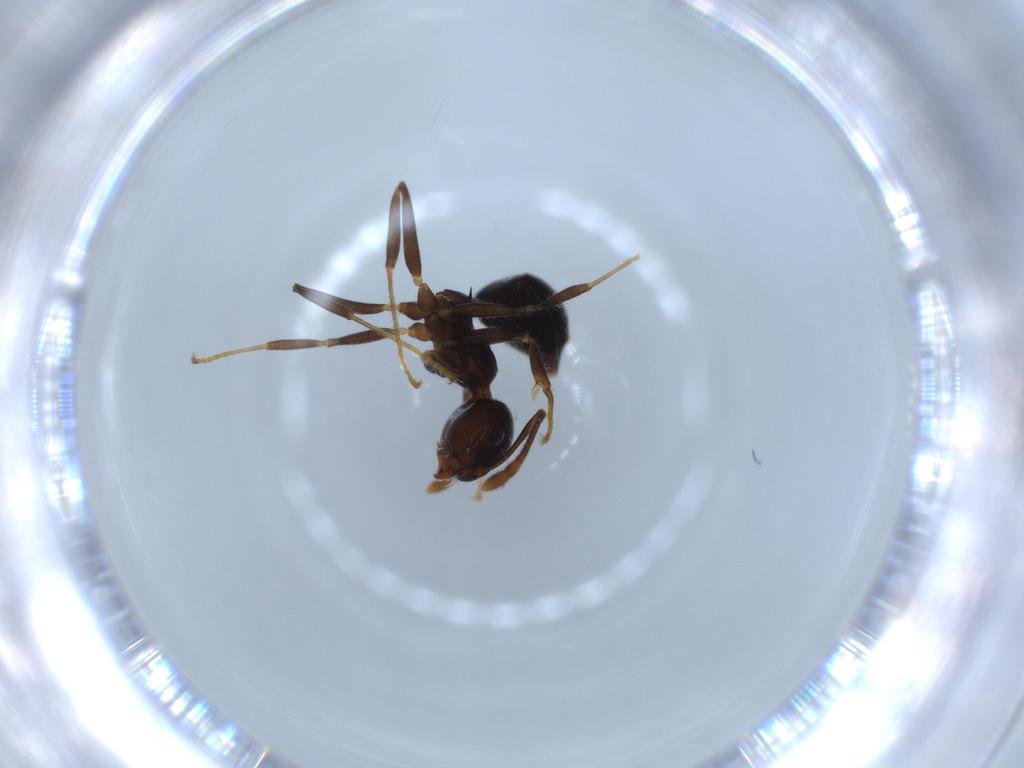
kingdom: Animalia
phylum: Arthropoda
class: Insecta
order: Hymenoptera
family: Formicidae
